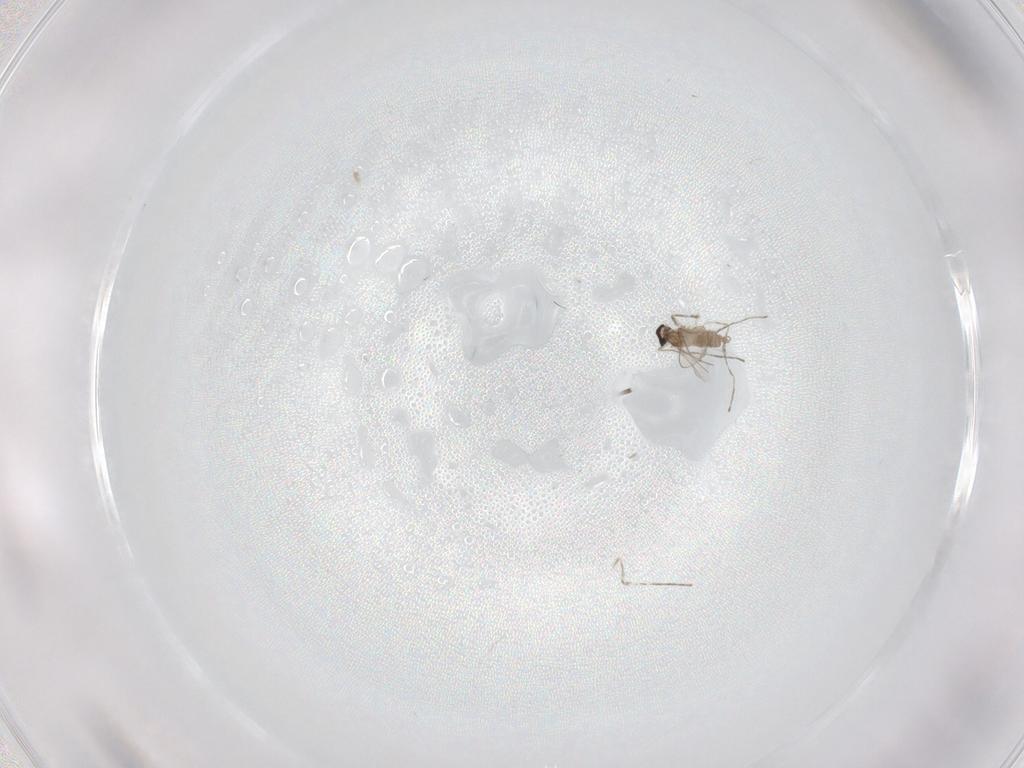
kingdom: Animalia
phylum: Arthropoda
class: Insecta
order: Diptera
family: Cecidomyiidae
